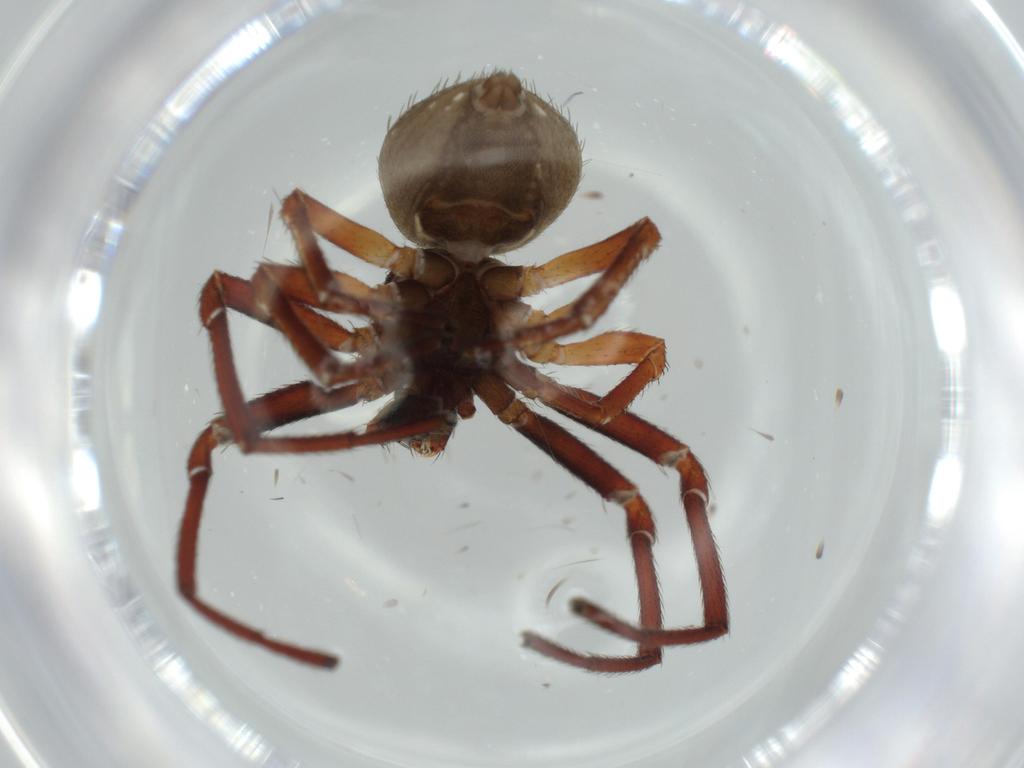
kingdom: Animalia
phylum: Arthropoda
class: Arachnida
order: Araneae
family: Thomisidae
